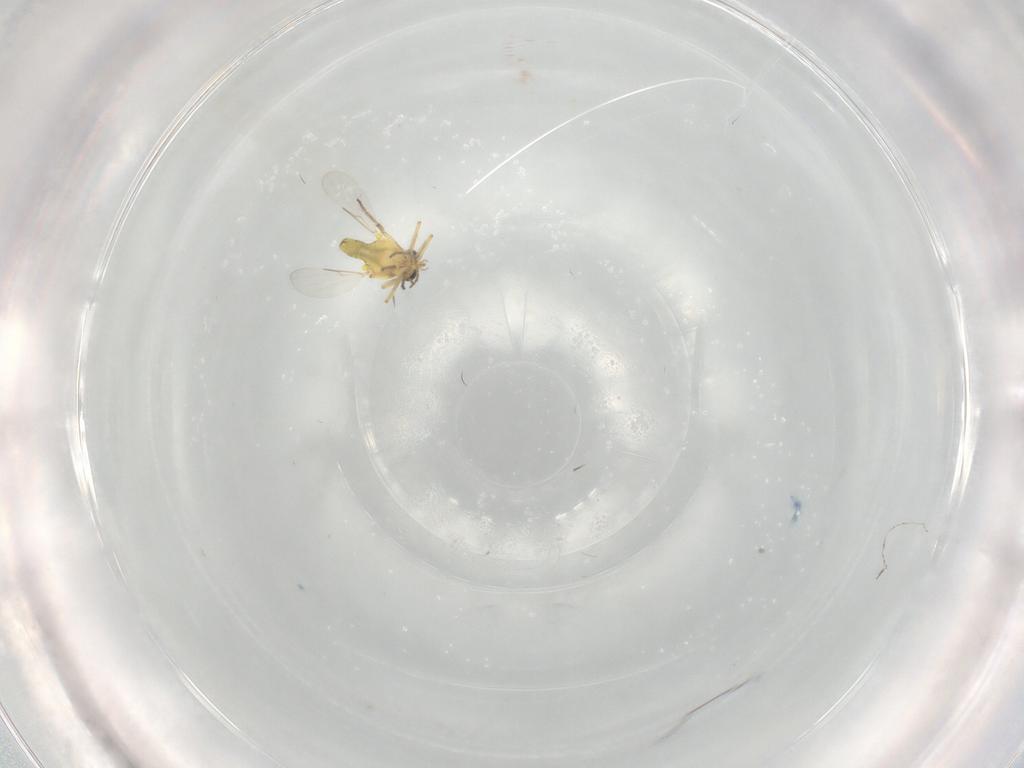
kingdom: Animalia
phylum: Arthropoda
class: Insecta
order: Diptera
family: Ceratopogonidae
